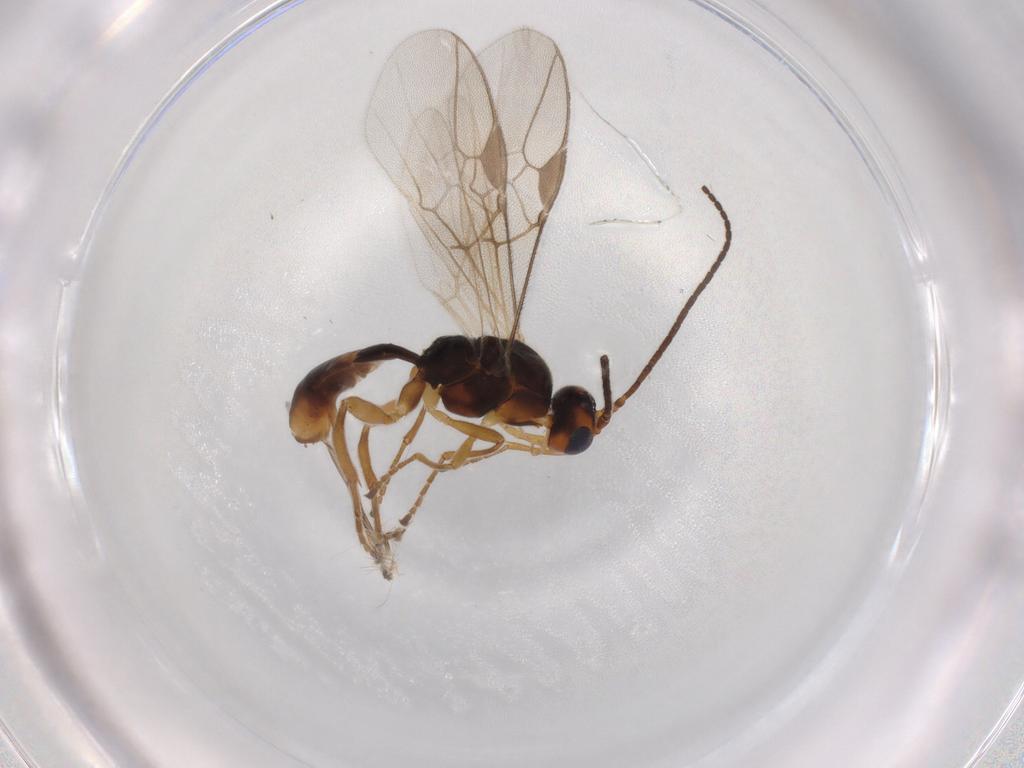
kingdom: Animalia
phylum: Arthropoda
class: Insecta
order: Hymenoptera
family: Braconidae
